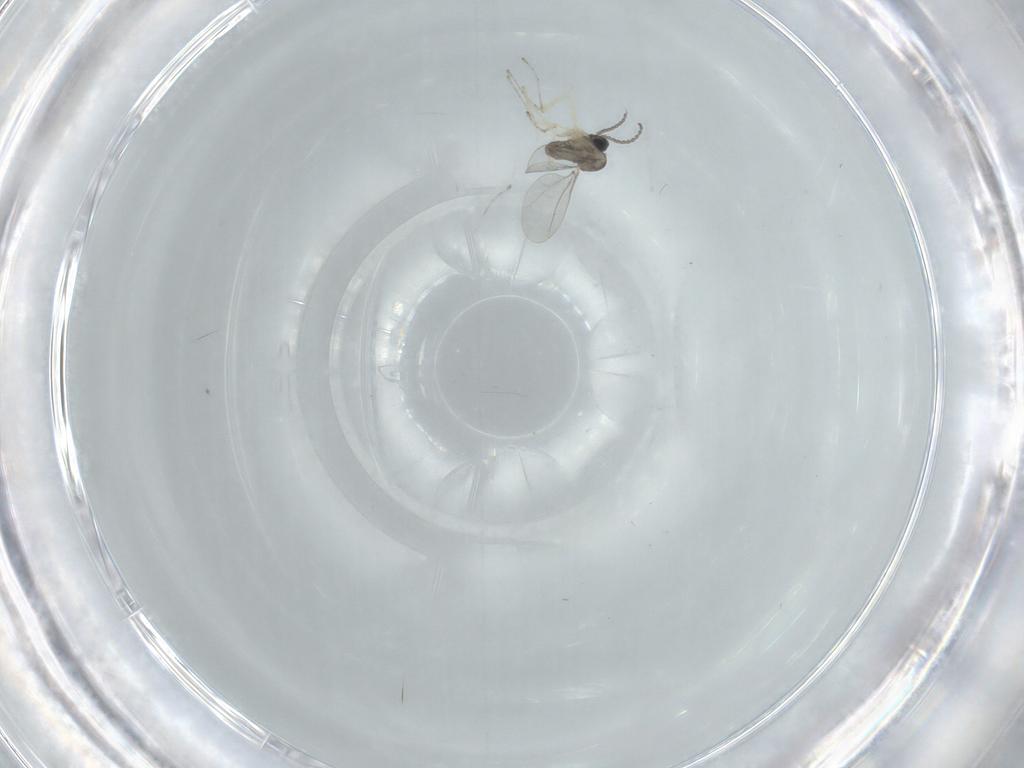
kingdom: Animalia
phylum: Arthropoda
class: Insecta
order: Diptera
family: Cecidomyiidae
